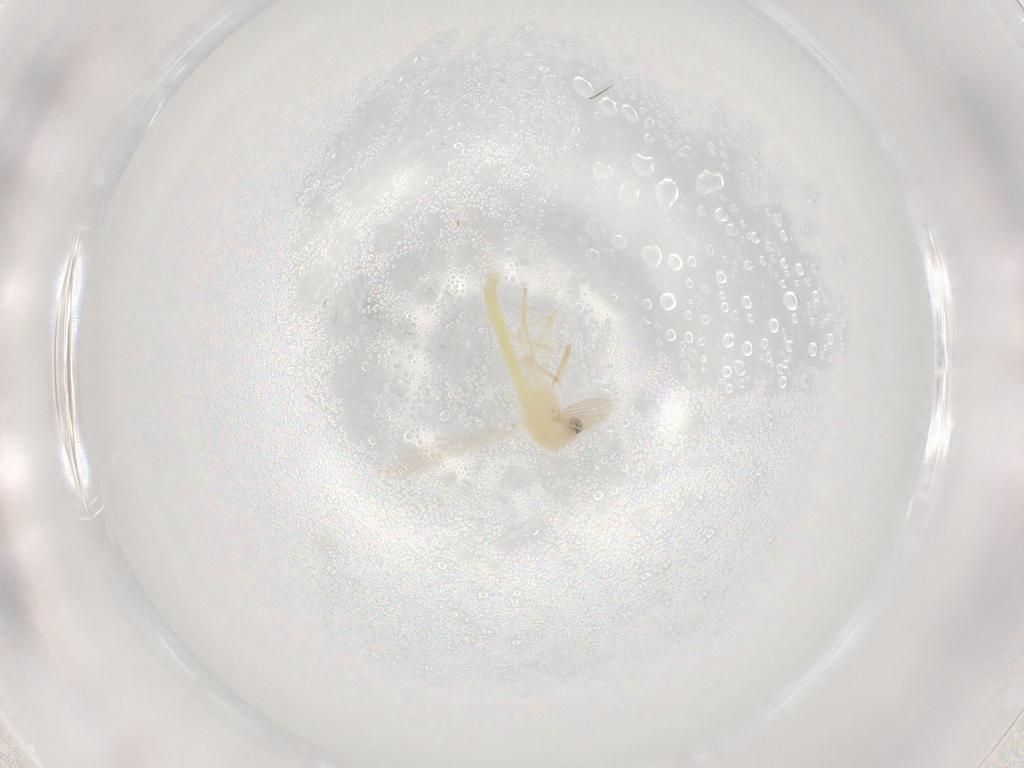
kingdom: Animalia
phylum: Arthropoda
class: Insecta
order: Diptera
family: Chironomidae
